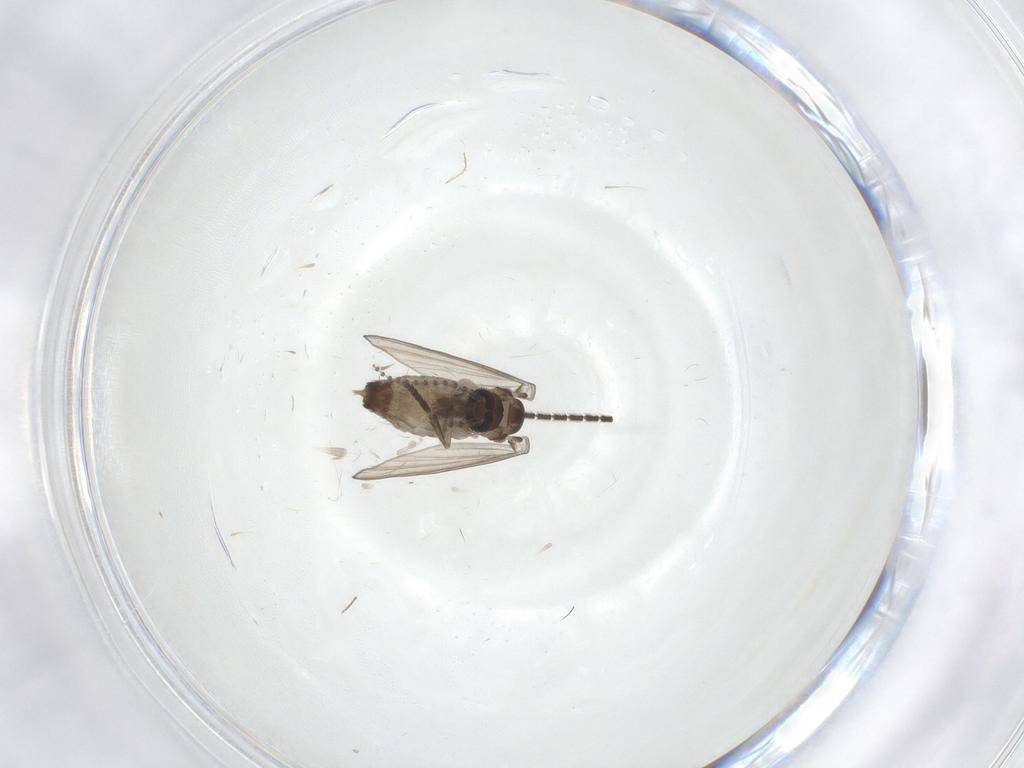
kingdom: Animalia
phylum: Arthropoda
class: Insecta
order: Diptera
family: Psychodidae
